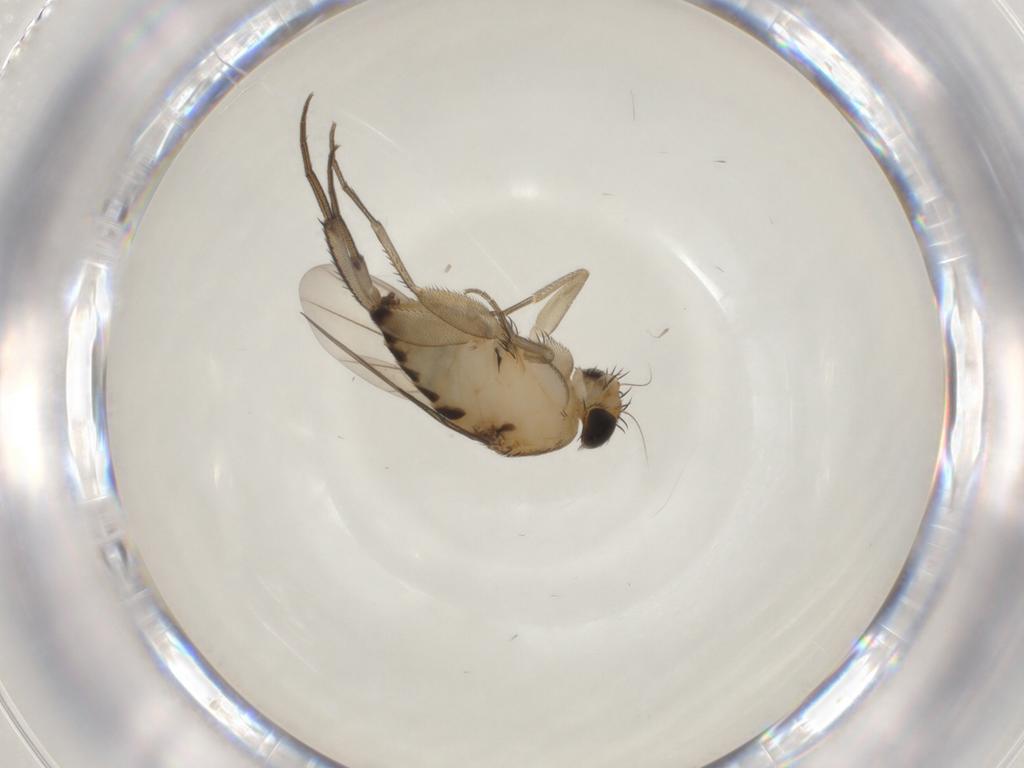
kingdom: Animalia
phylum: Arthropoda
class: Insecta
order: Diptera
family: Phoridae
